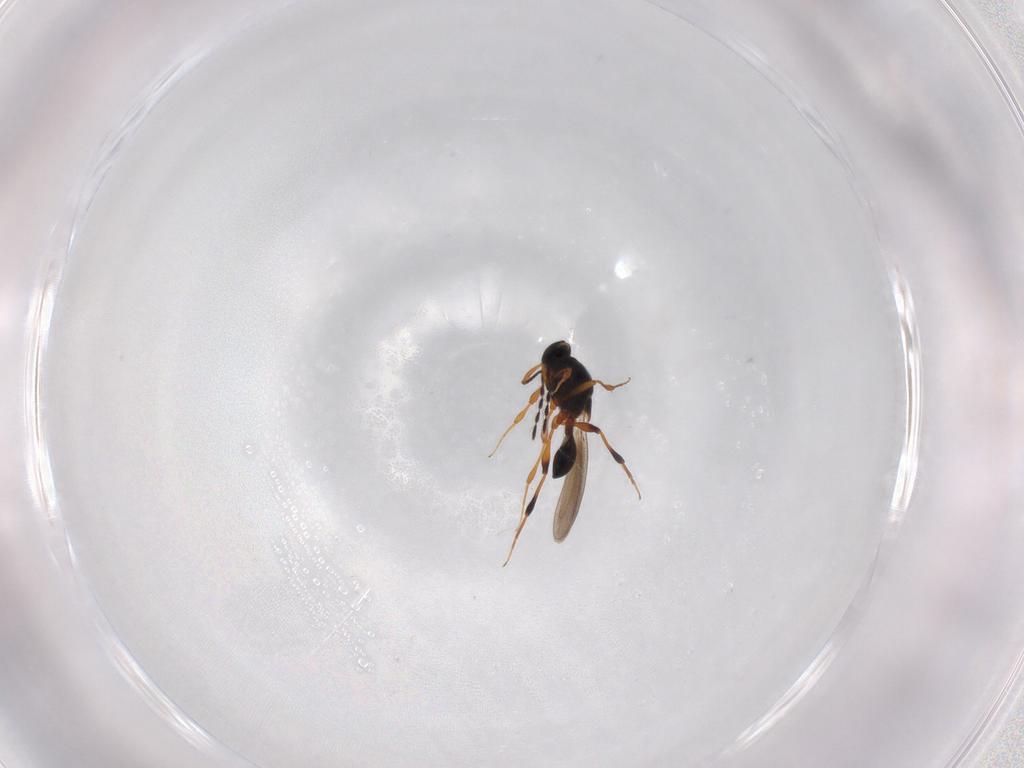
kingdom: Animalia
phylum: Arthropoda
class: Insecta
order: Hymenoptera
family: Platygastridae
